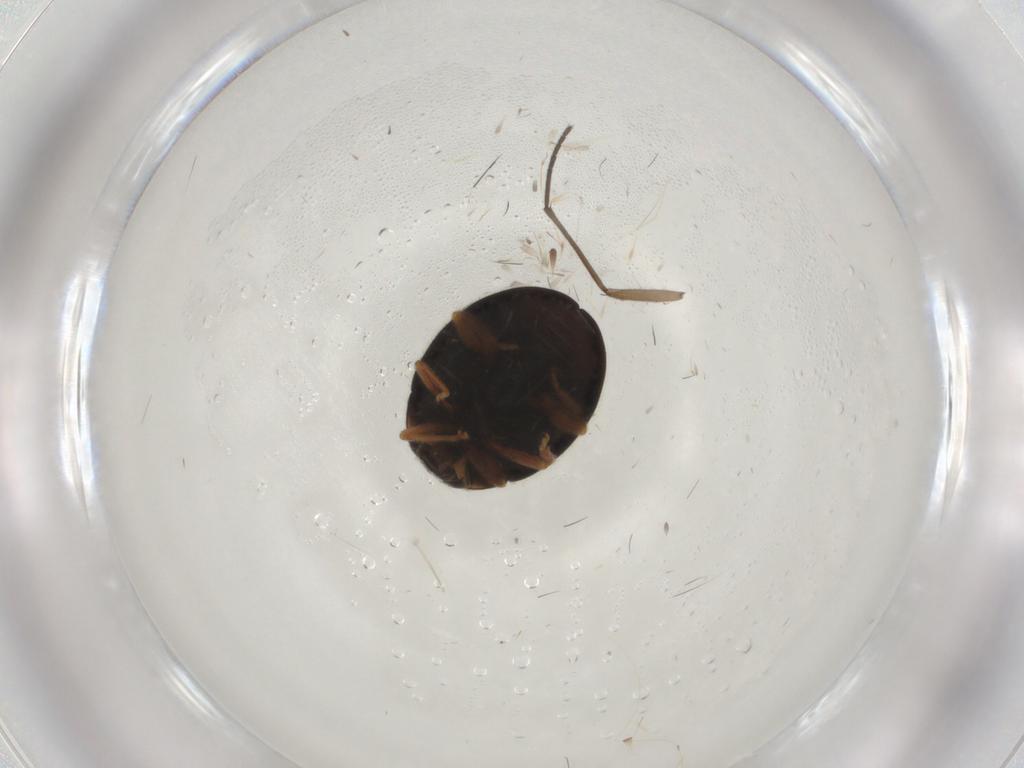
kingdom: Animalia
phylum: Arthropoda
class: Insecta
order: Coleoptera
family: Coccinellidae
